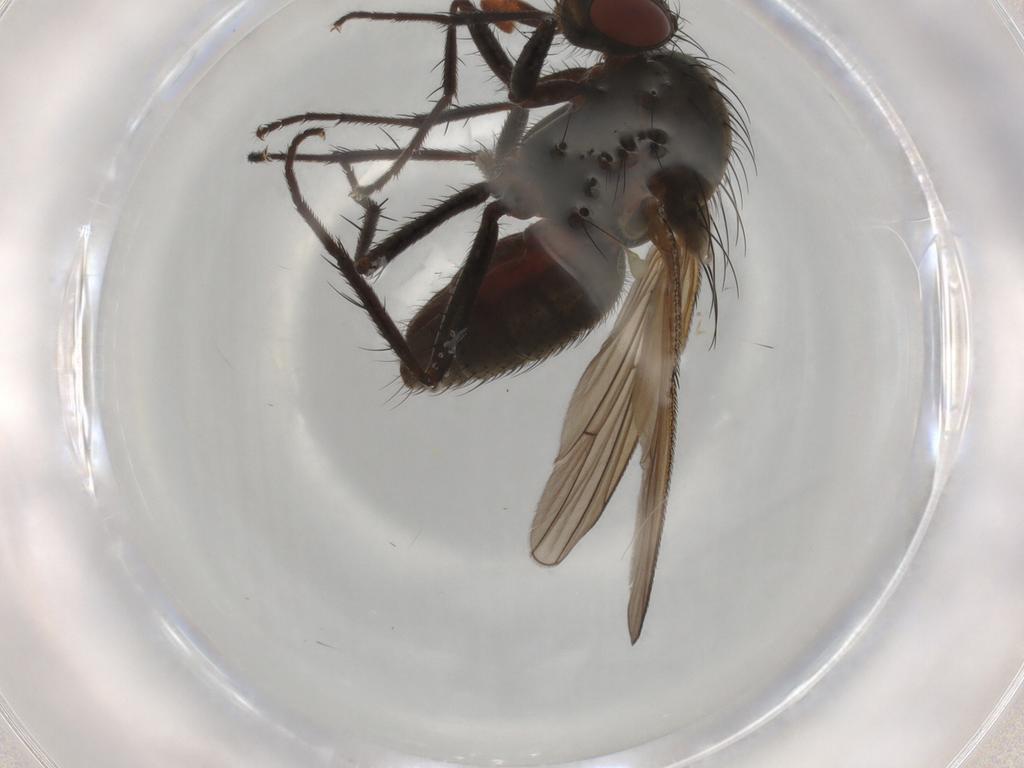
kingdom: Animalia
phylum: Arthropoda
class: Insecta
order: Diptera
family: Anthomyiidae
